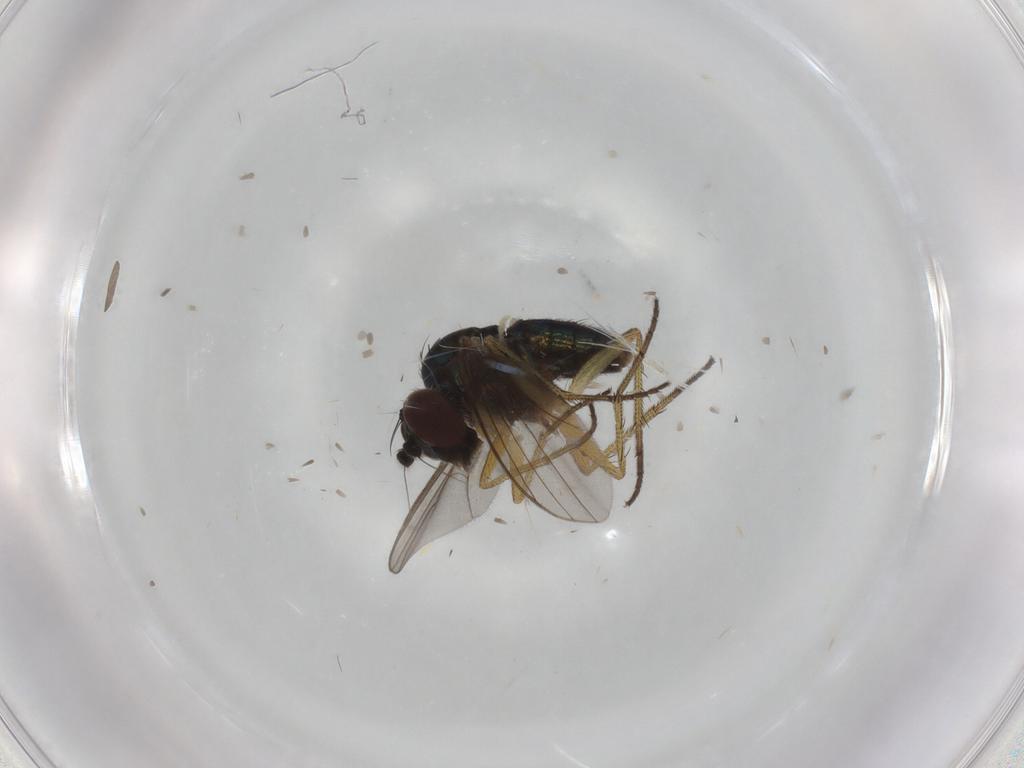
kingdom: Animalia
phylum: Arthropoda
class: Insecta
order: Diptera
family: Dolichopodidae
